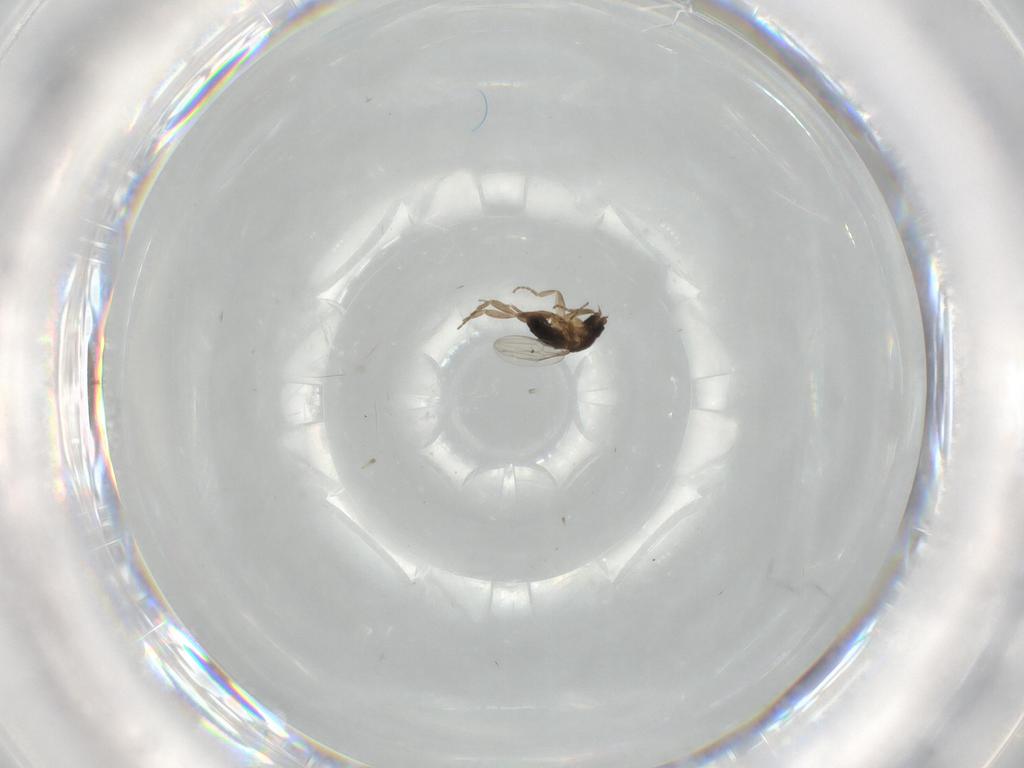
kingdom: Animalia
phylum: Arthropoda
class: Insecta
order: Diptera
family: Phoridae
